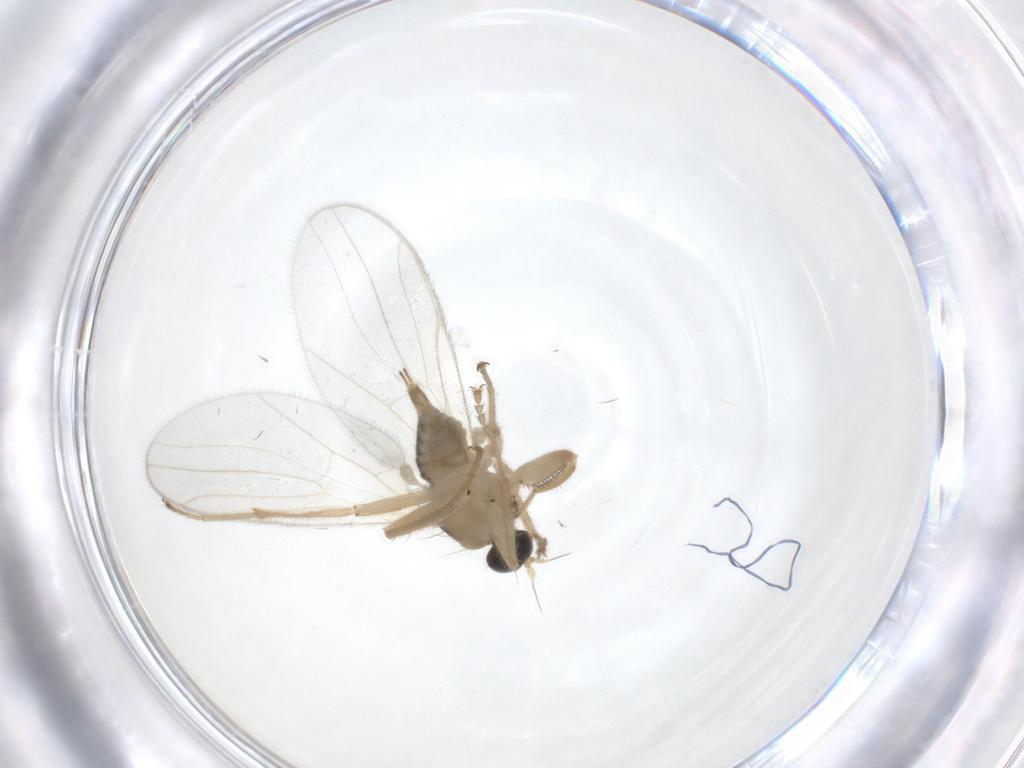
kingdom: Animalia
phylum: Arthropoda
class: Insecta
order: Diptera
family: Hybotidae
